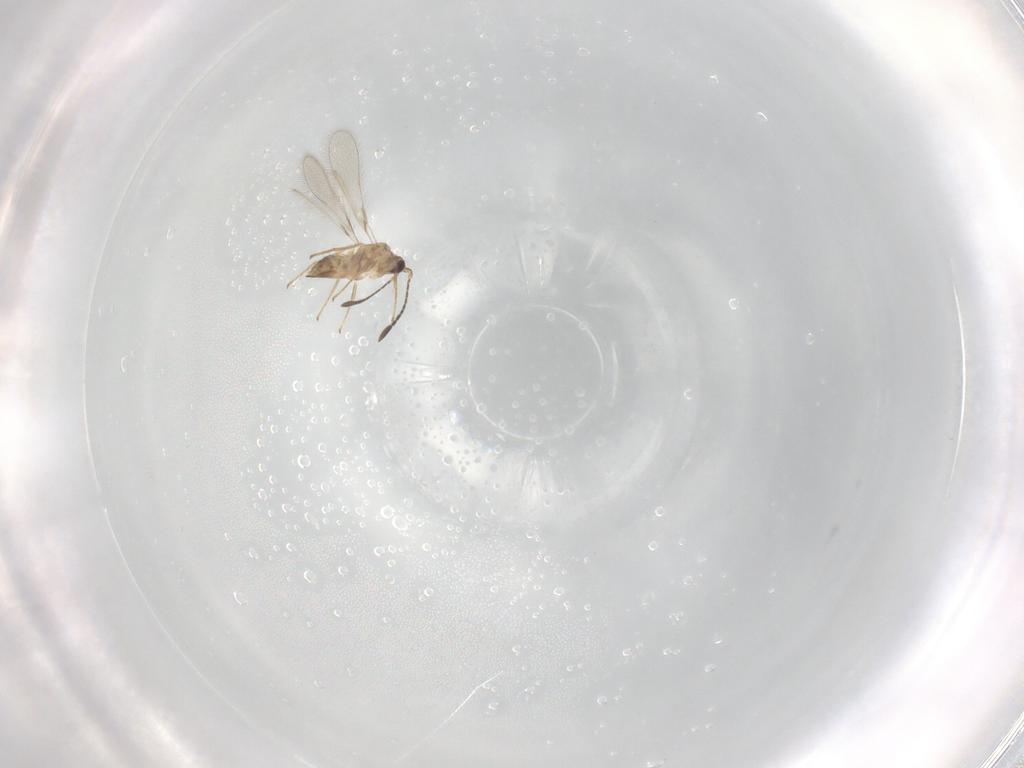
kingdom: Animalia
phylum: Arthropoda
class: Insecta
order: Hymenoptera
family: Mymaridae
